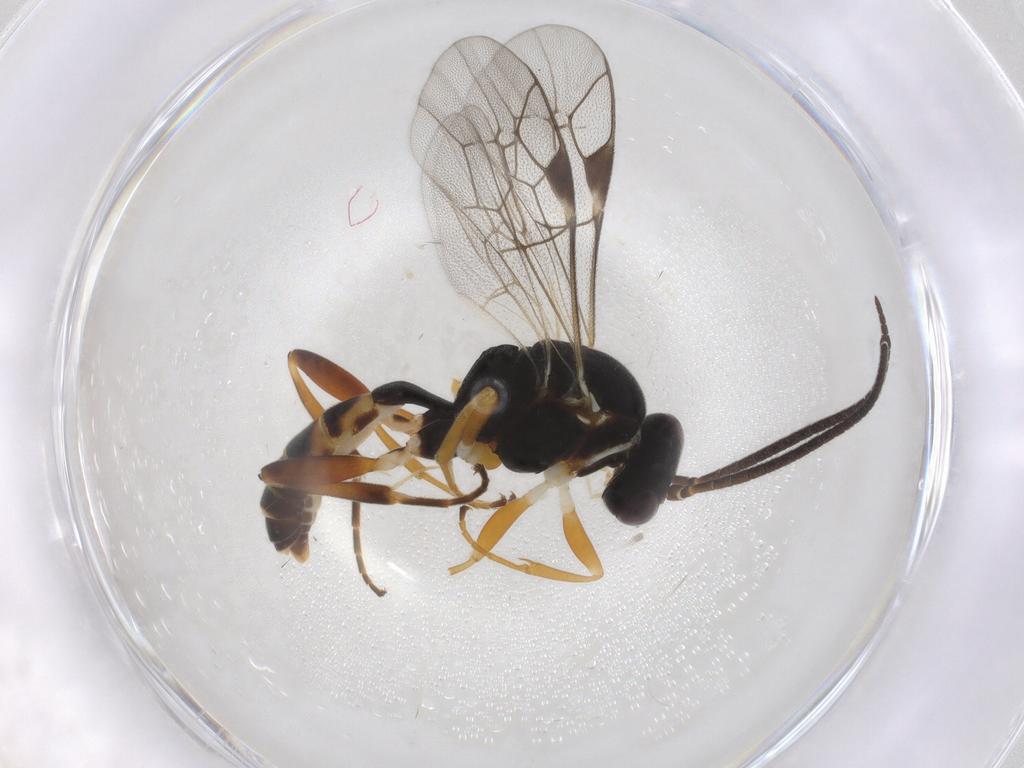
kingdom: Animalia
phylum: Arthropoda
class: Insecta
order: Hymenoptera
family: Ichneumonidae
